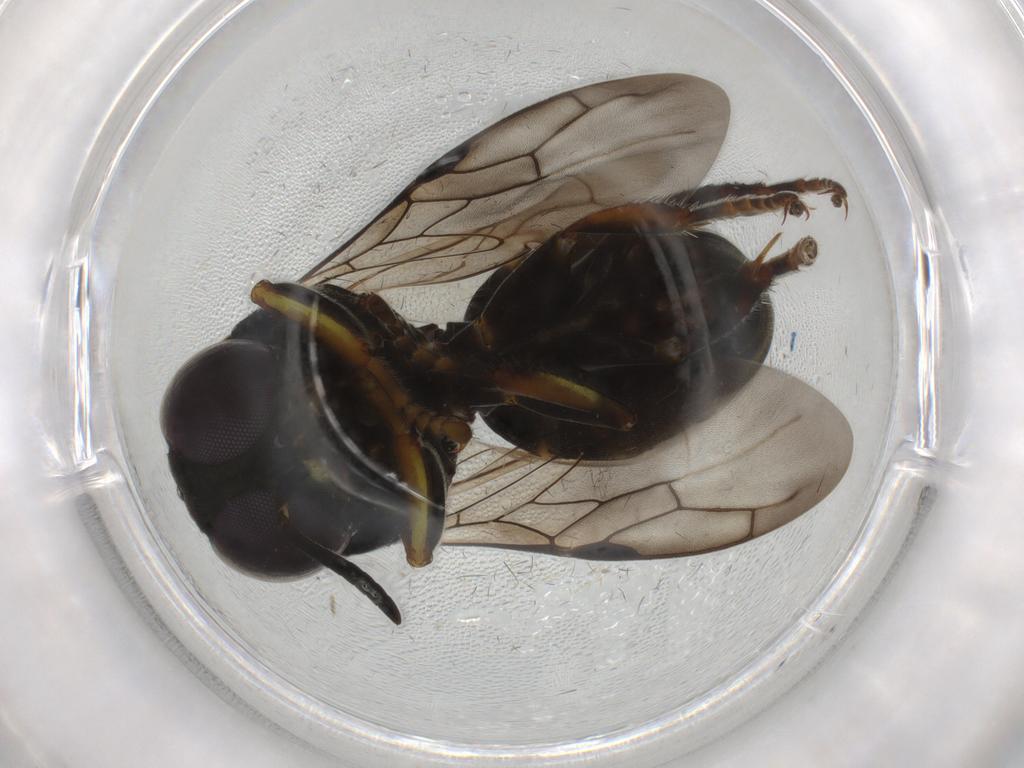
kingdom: Animalia
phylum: Arthropoda
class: Insecta
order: Hymenoptera
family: Crabronidae
